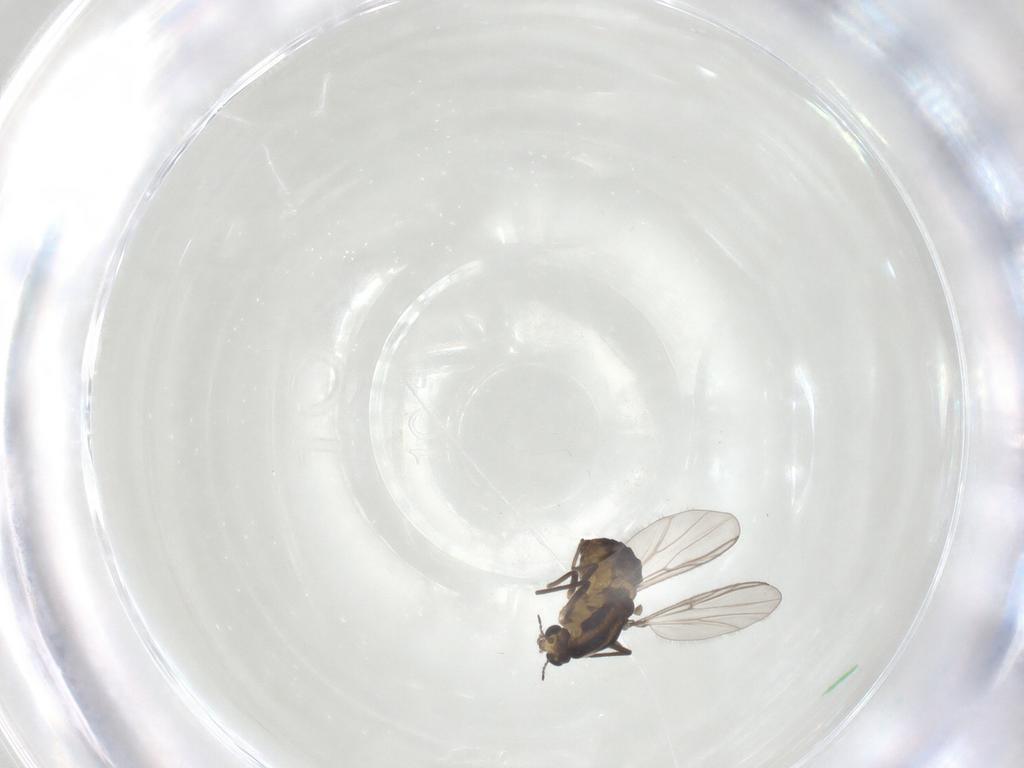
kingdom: Animalia
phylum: Arthropoda
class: Insecta
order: Diptera
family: Chironomidae
